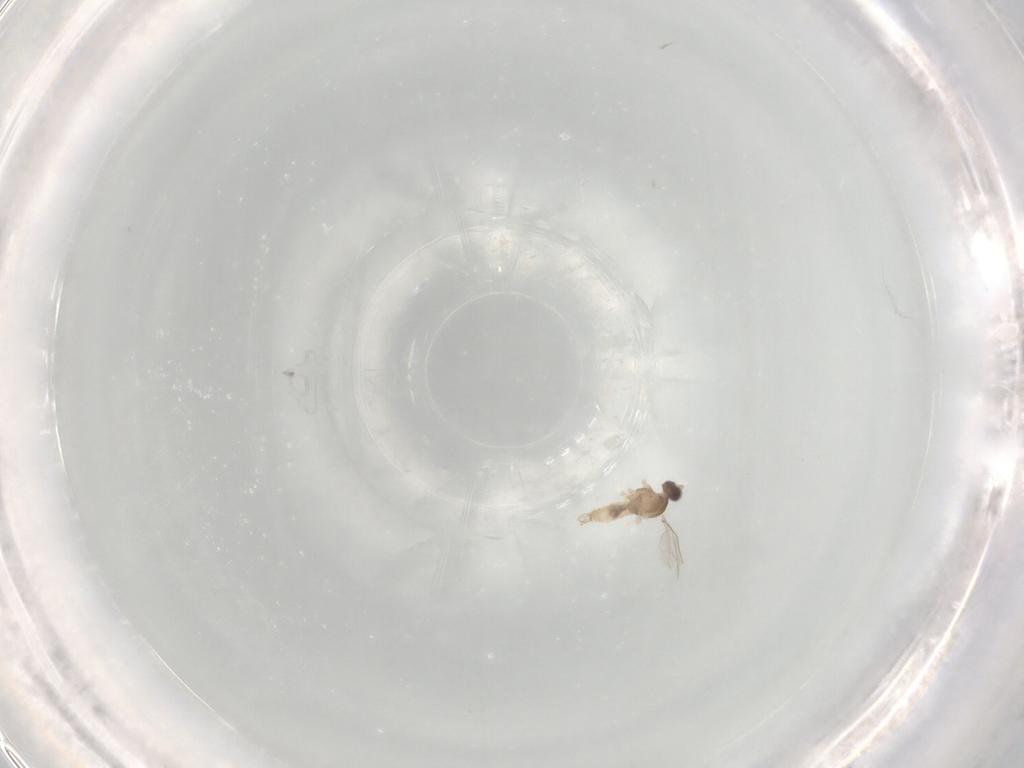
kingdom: Animalia
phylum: Arthropoda
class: Insecta
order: Diptera
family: Cecidomyiidae
